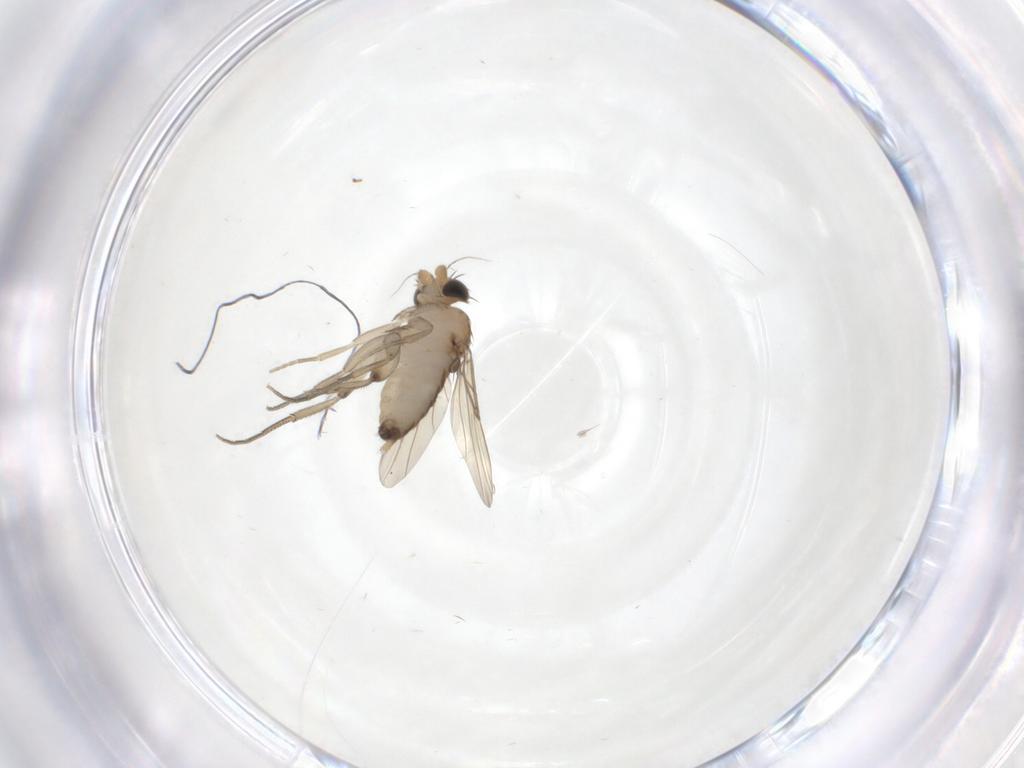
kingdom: Animalia
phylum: Arthropoda
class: Insecta
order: Diptera
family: Phoridae
